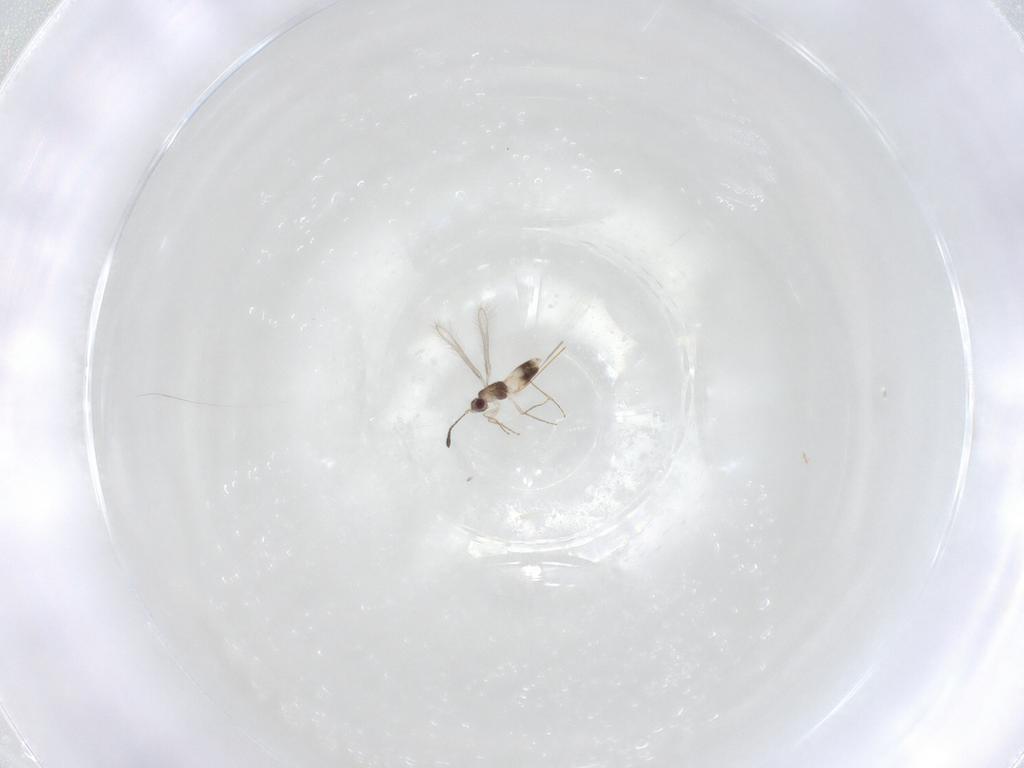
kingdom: Animalia
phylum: Arthropoda
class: Insecta
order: Hymenoptera
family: Mymaridae
